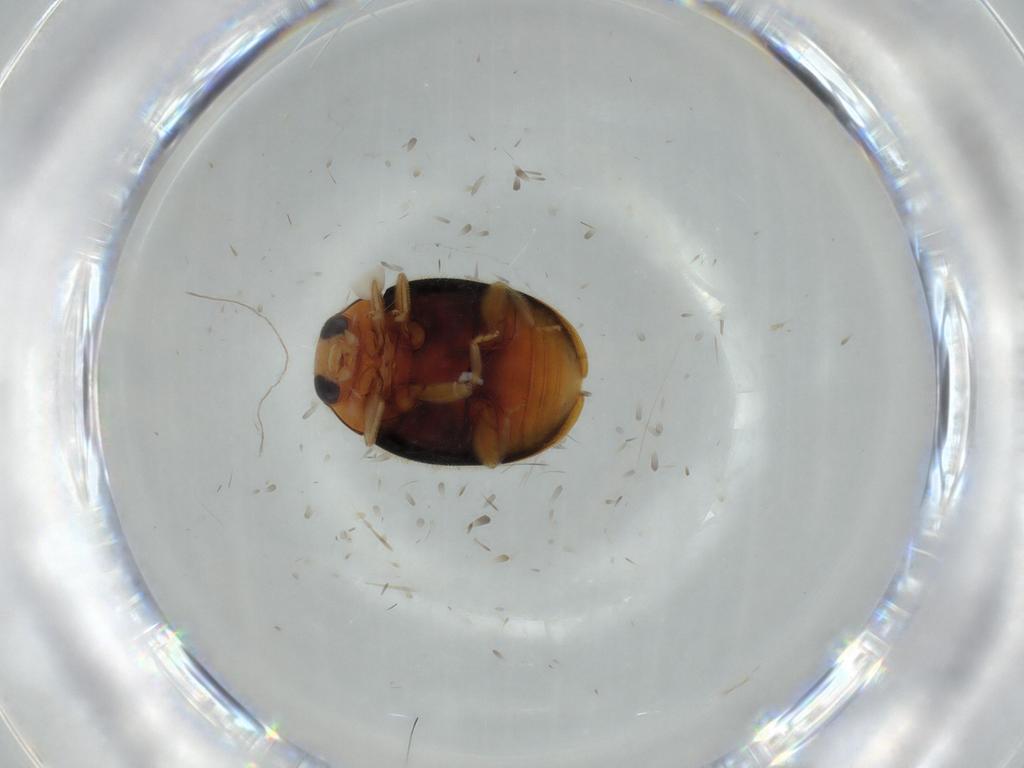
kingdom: Animalia
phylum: Arthropoda
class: Insecta
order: Coleoptera
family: Coccinellidae
